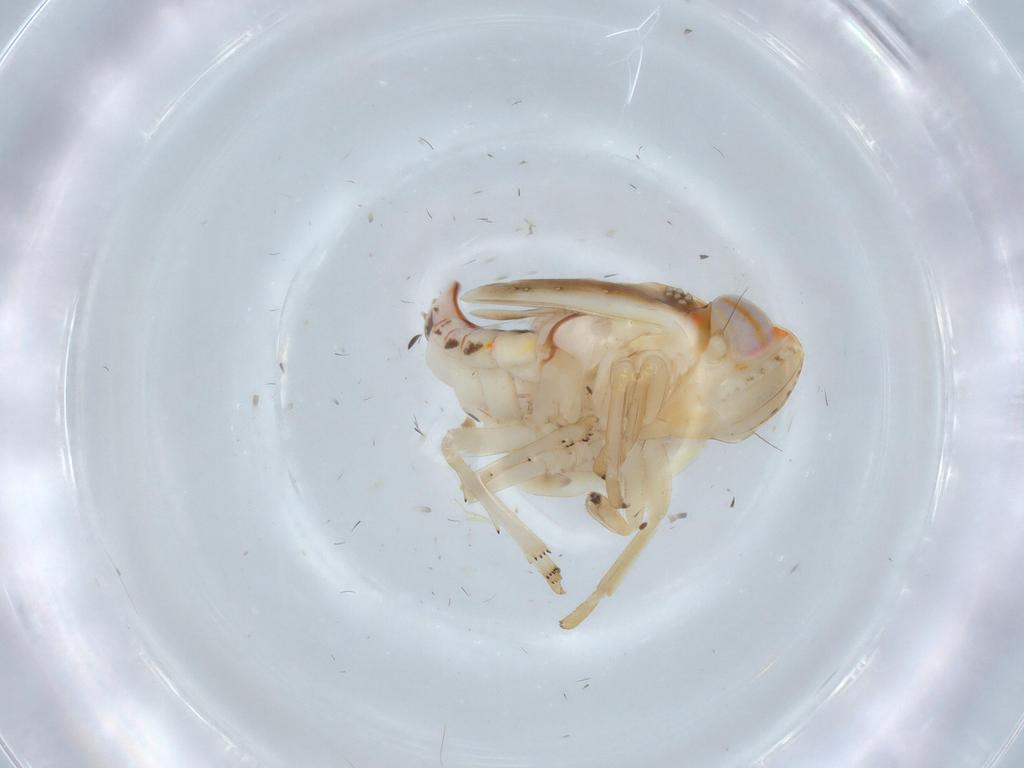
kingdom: Animalia
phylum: Arthropoda
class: Insecta
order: Hemiptera
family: Nogodinidae
